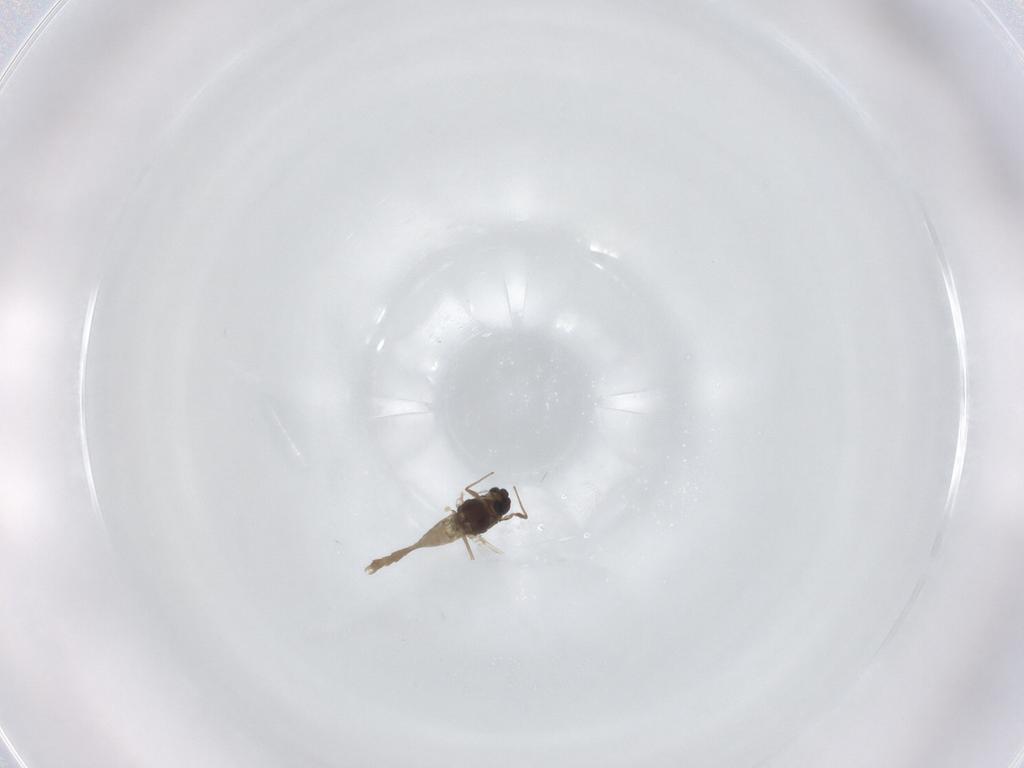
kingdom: Animalia
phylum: Arthropoda
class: Insecta
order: Diptera
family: Chironomidae
